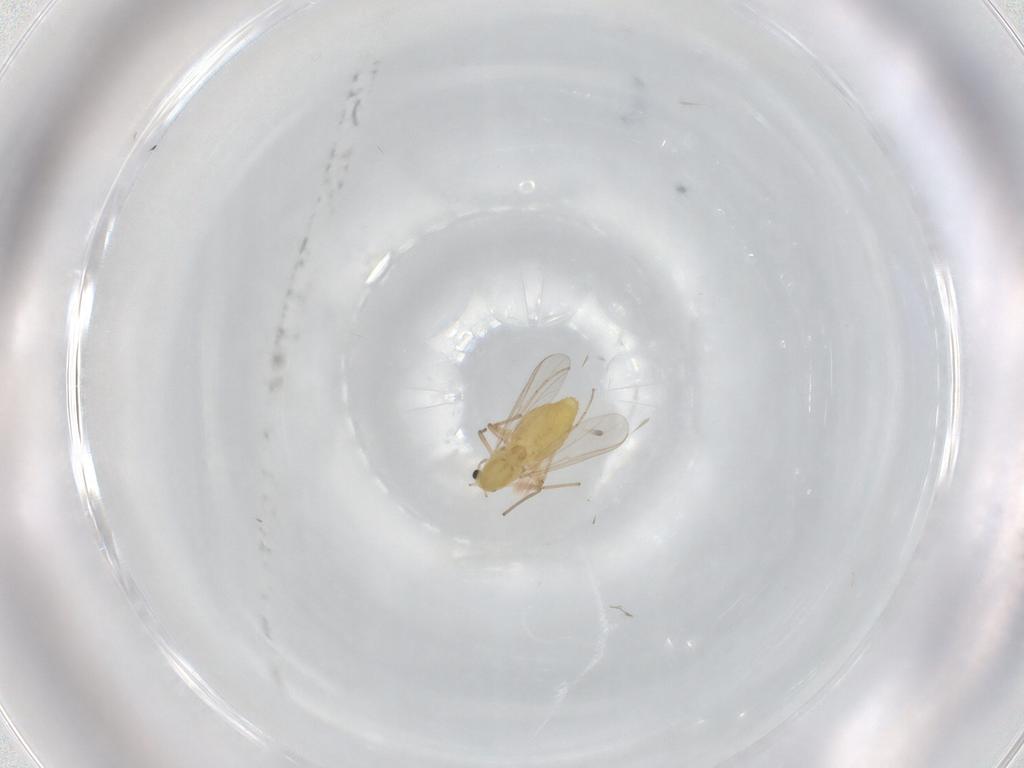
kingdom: Animalia
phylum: Arthropoda
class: Insecta
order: Diptera
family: Chironomidae
